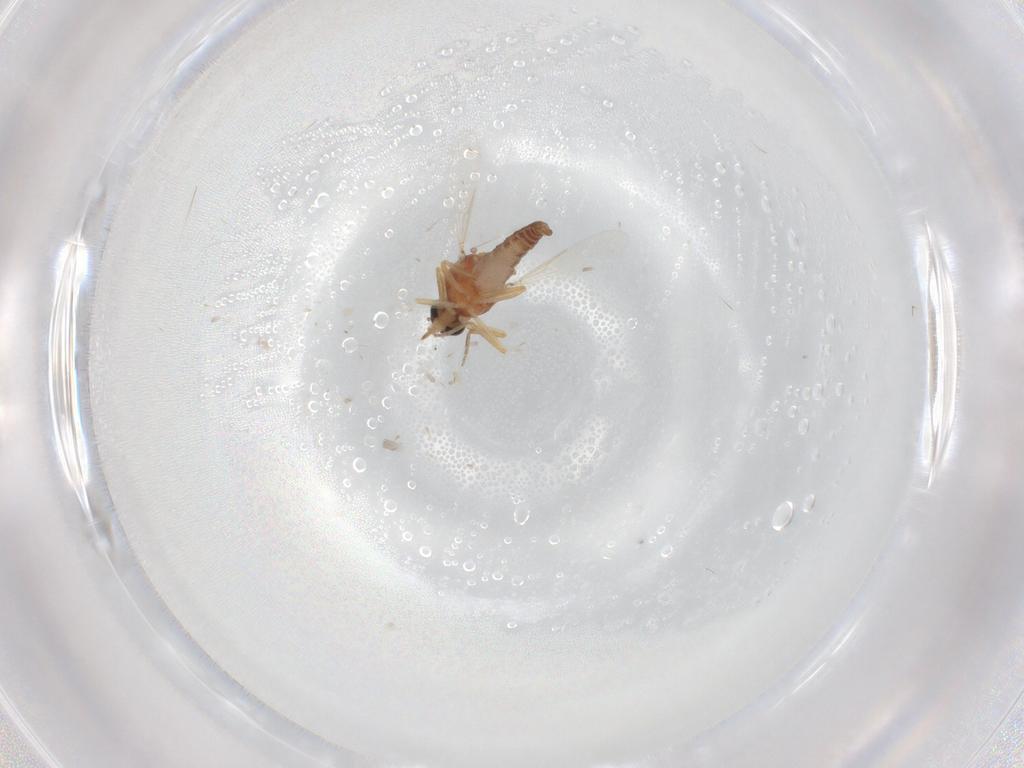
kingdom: Animalia
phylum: Arthropoda
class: Insecta
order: Diptera
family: Ceratopogonidae
